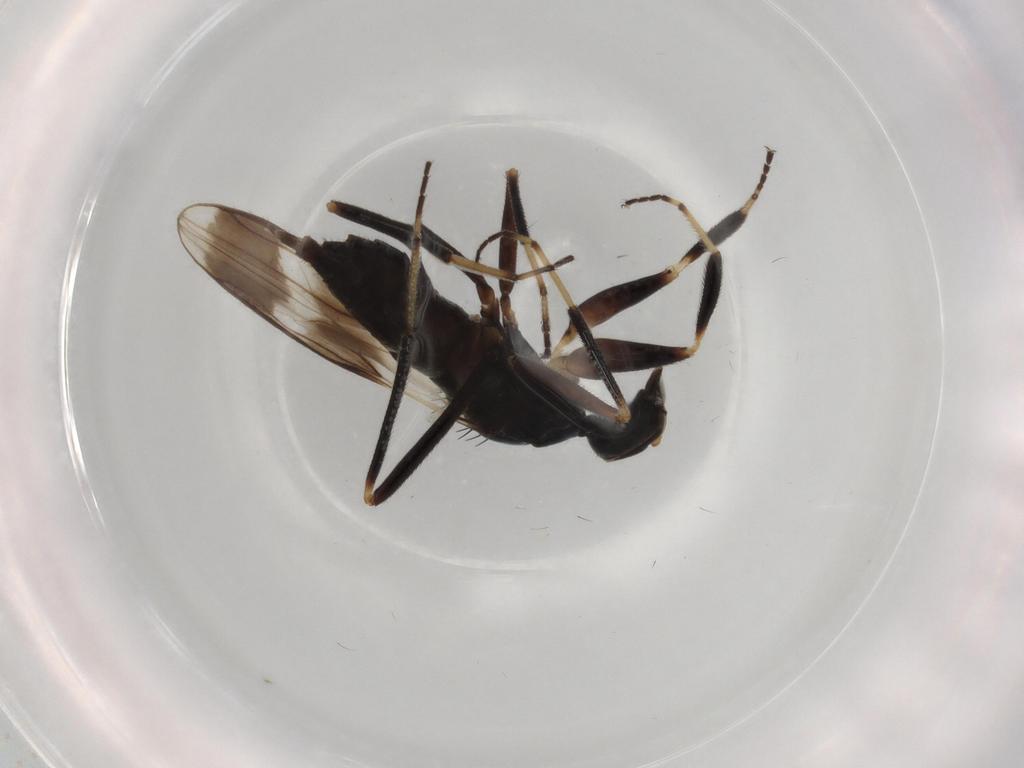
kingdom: Animalia
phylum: Arthropoda
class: Insecta
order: Diptera
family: Hybotidae
